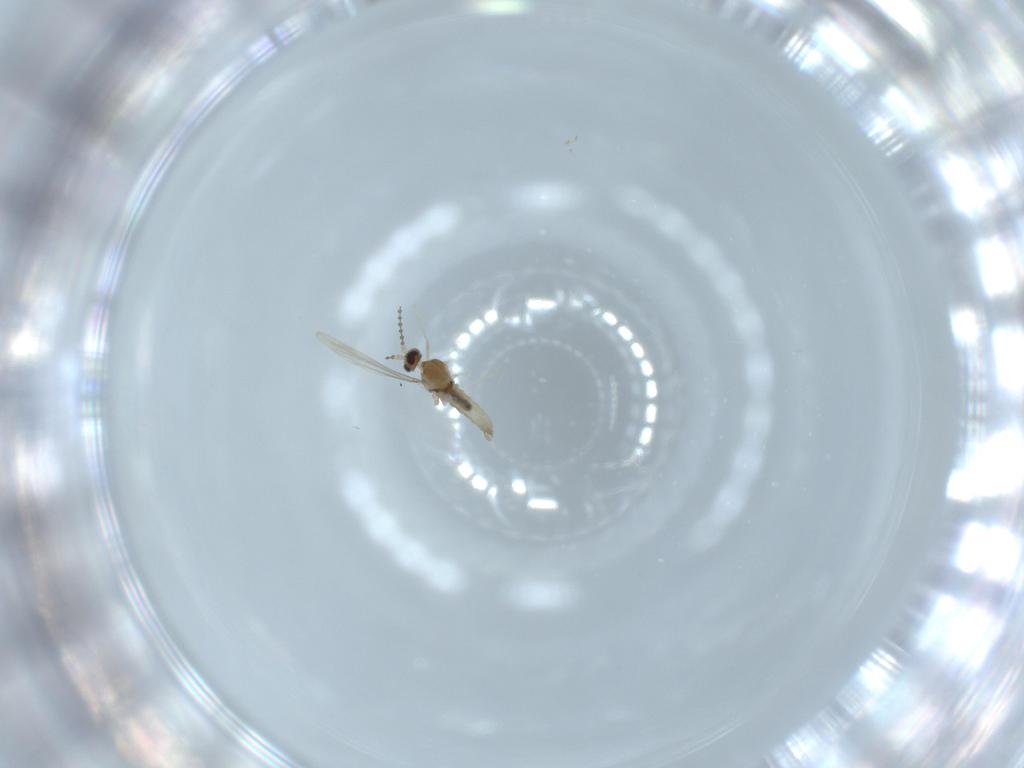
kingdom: Animalia
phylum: Arthropoda
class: Insecta
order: Diptera
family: Cecidomyiidae
